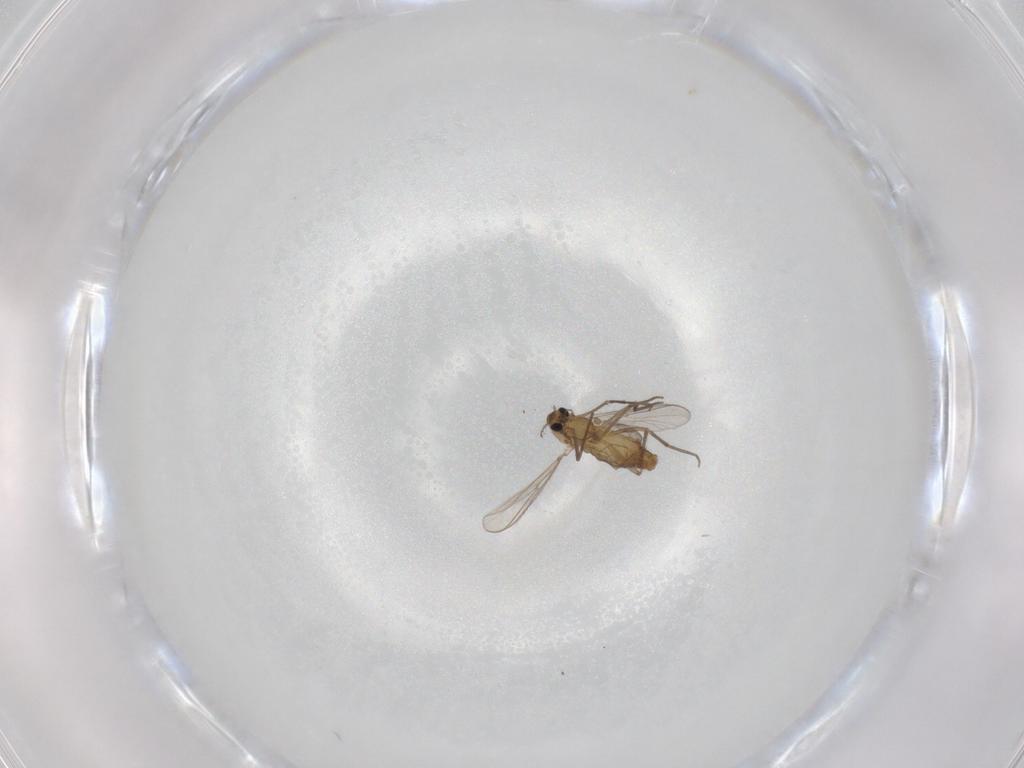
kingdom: Animalia
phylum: Arthropoda
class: Insecta
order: Diptera
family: Chironomidae
